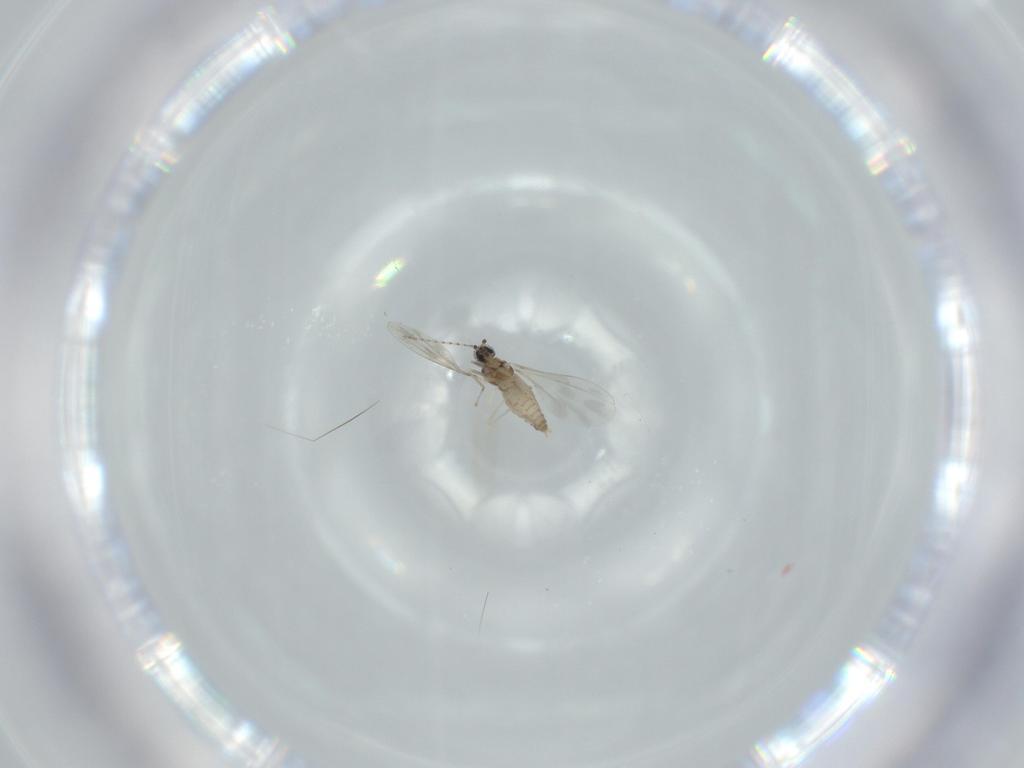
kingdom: Animalia
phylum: Arthropoda
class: Insecta
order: Diptera
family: Cecidomyiidae
